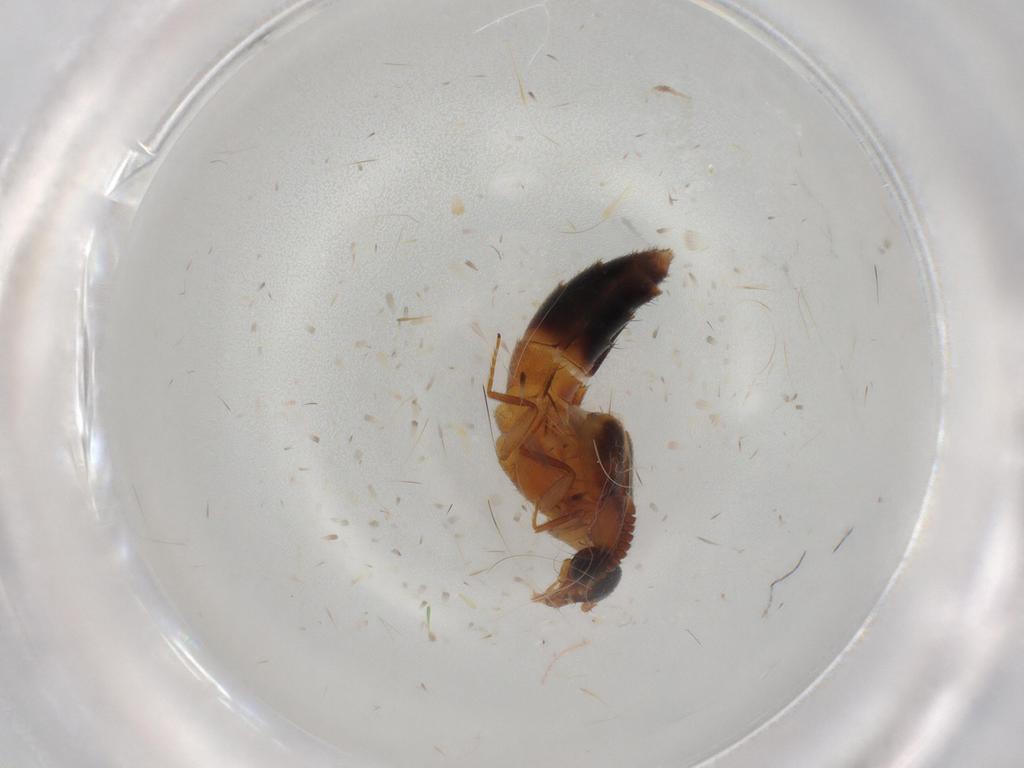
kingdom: Animalia
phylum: Arthropoda
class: Insecta
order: Coleoptera
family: Staphylinidae
